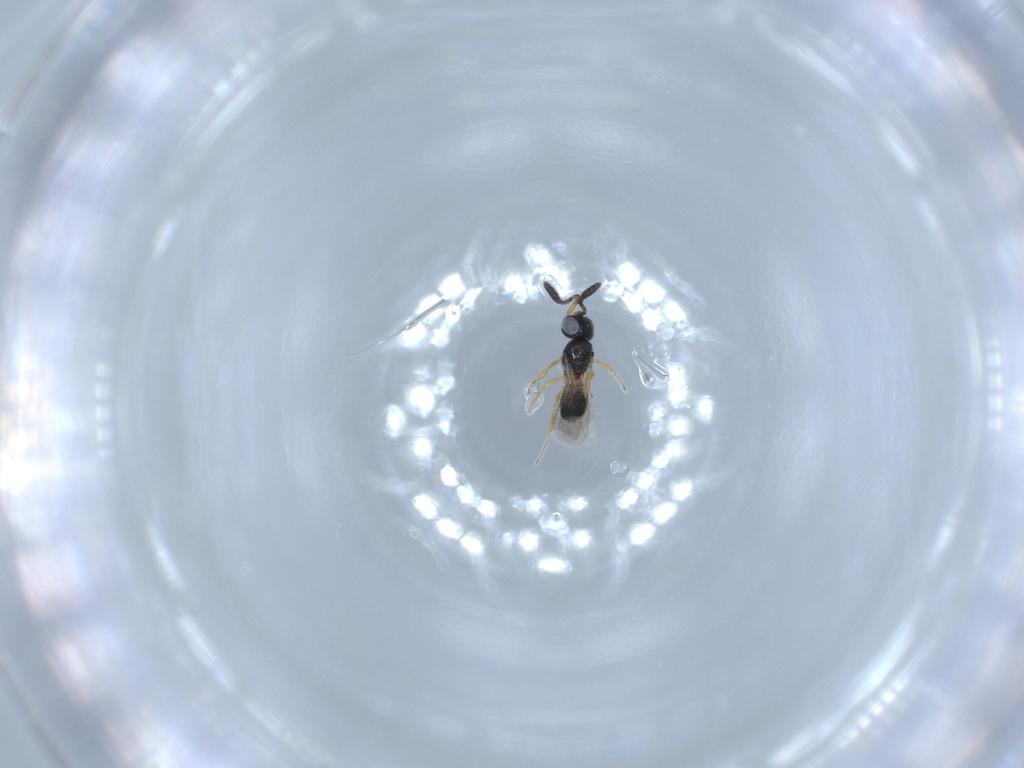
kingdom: Animalia
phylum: Arthropoda
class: Insecta
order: Hymenoptera
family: Scelionidae
